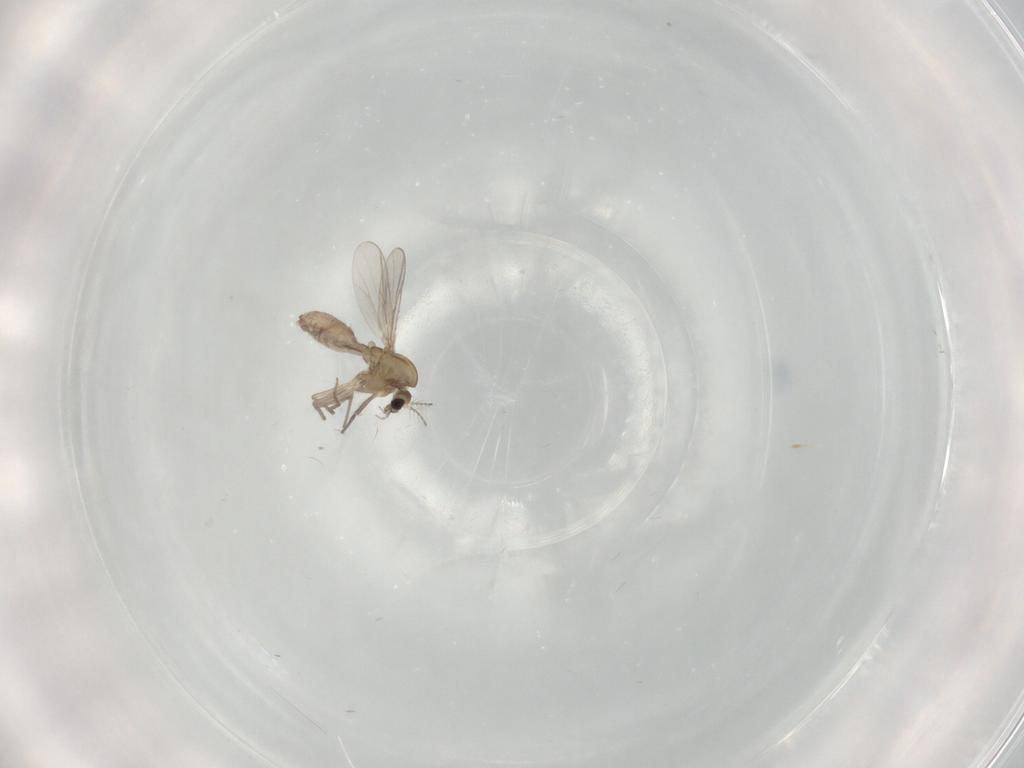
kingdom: Animalia
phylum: Arthropoda
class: Insecta
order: Diptera
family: Chironomidae
